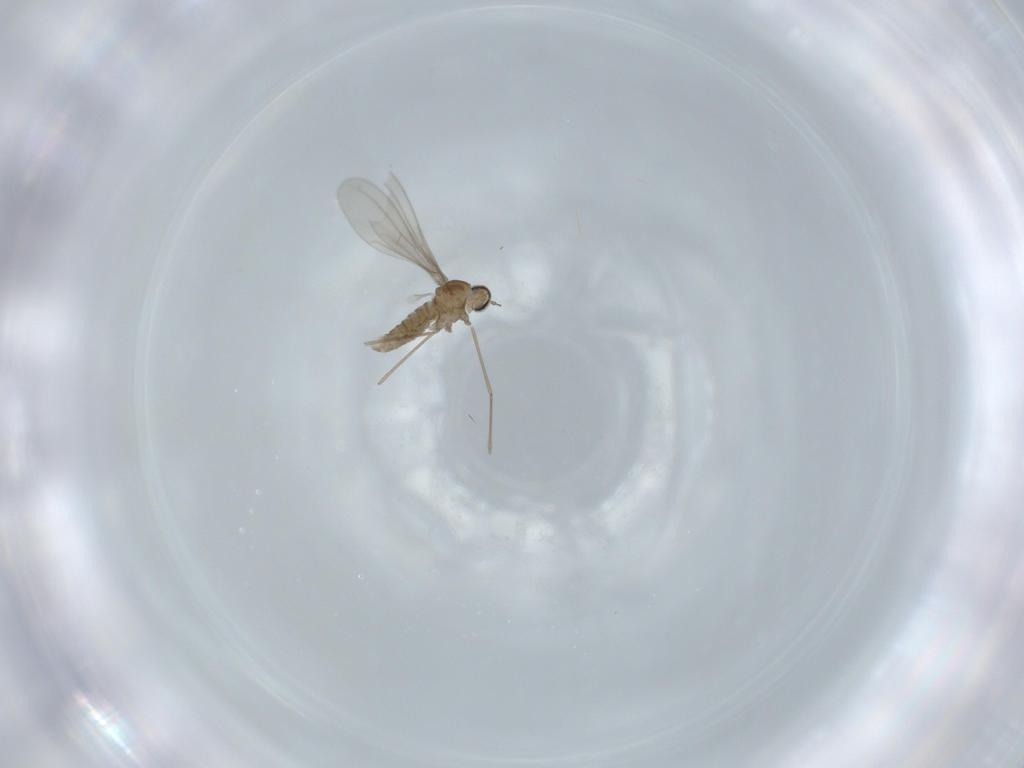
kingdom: Animalia
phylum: Arthropoda
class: Insecta
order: Diptera
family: Cecidomyiidae
